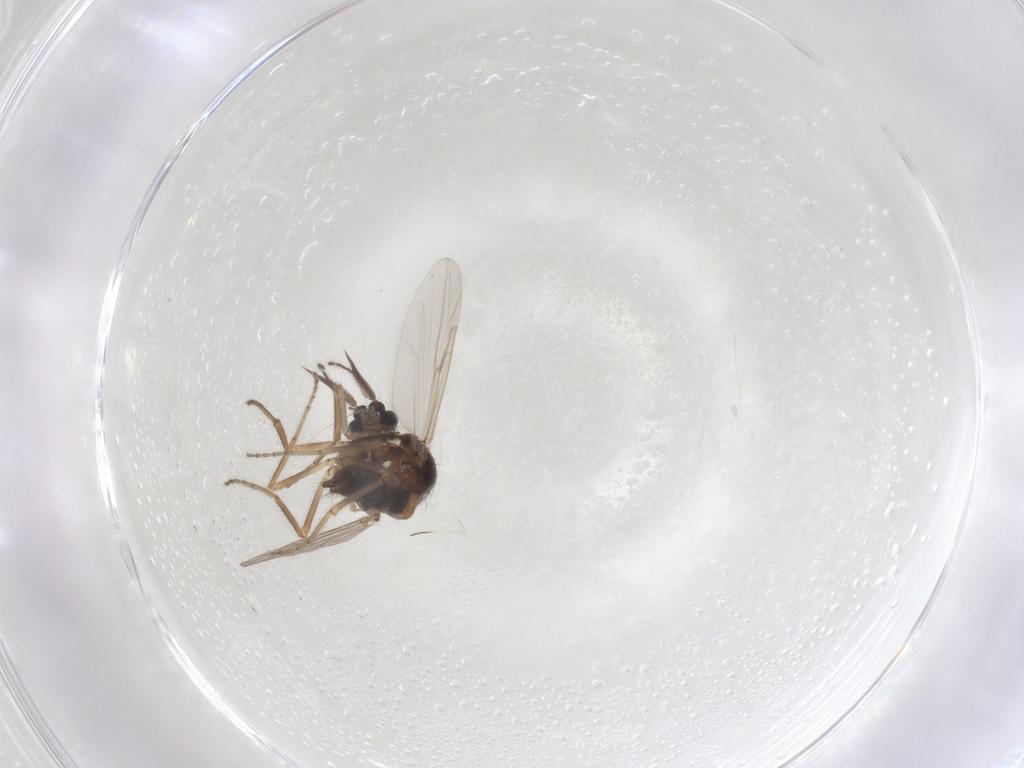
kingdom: Animalia
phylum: Arthropoda
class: Insecta
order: Diptera
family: Ceratopogonidae
